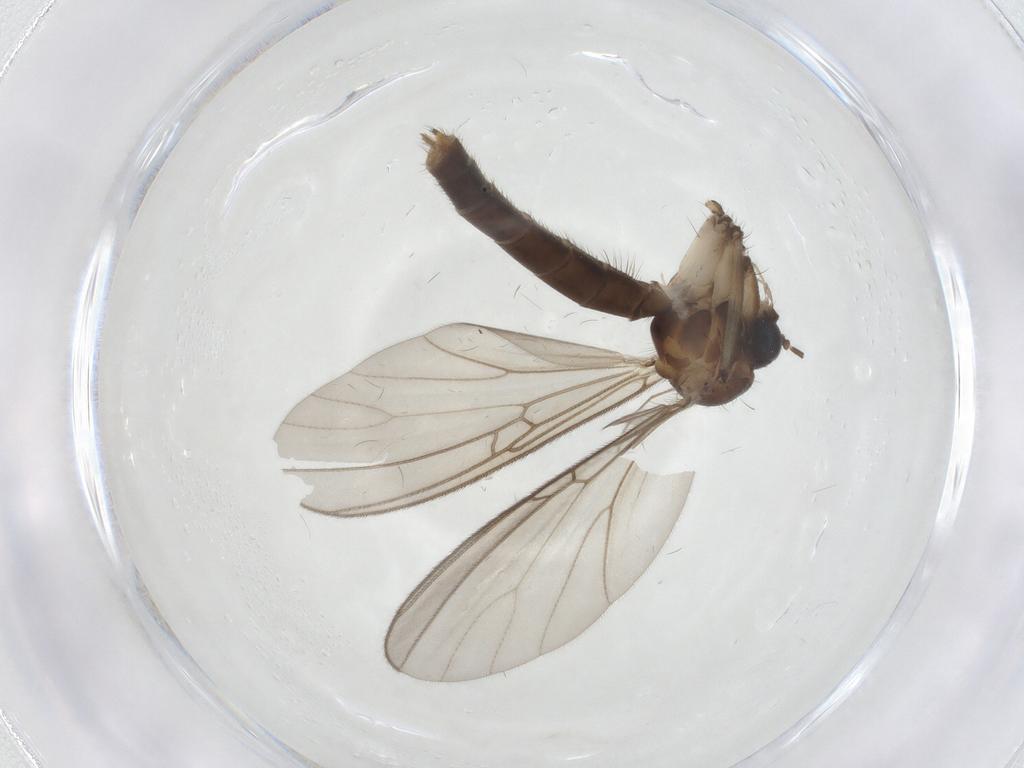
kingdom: Animalia
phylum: Arthropoda
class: Insecta
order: Diptera
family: Mycetophilidae
